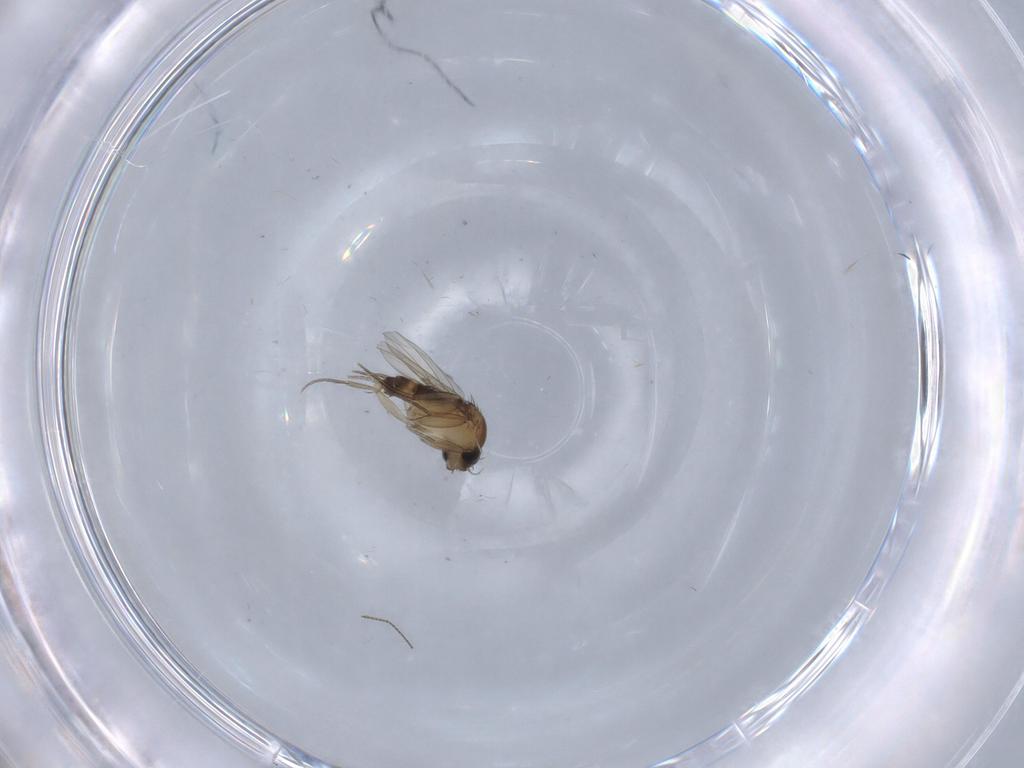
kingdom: Animalia
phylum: Arthropoda
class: Insecta
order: Diptera
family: Phoridae
